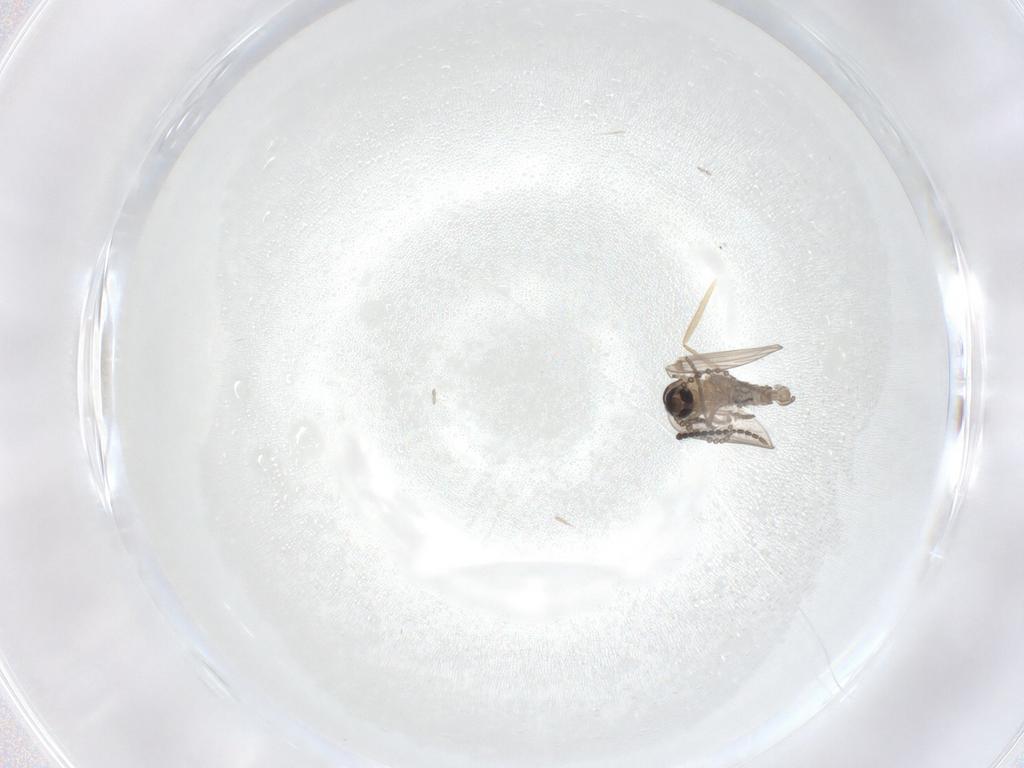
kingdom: Animalia
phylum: Arthropoda
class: Insecta
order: Diptera
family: Psychodidae
